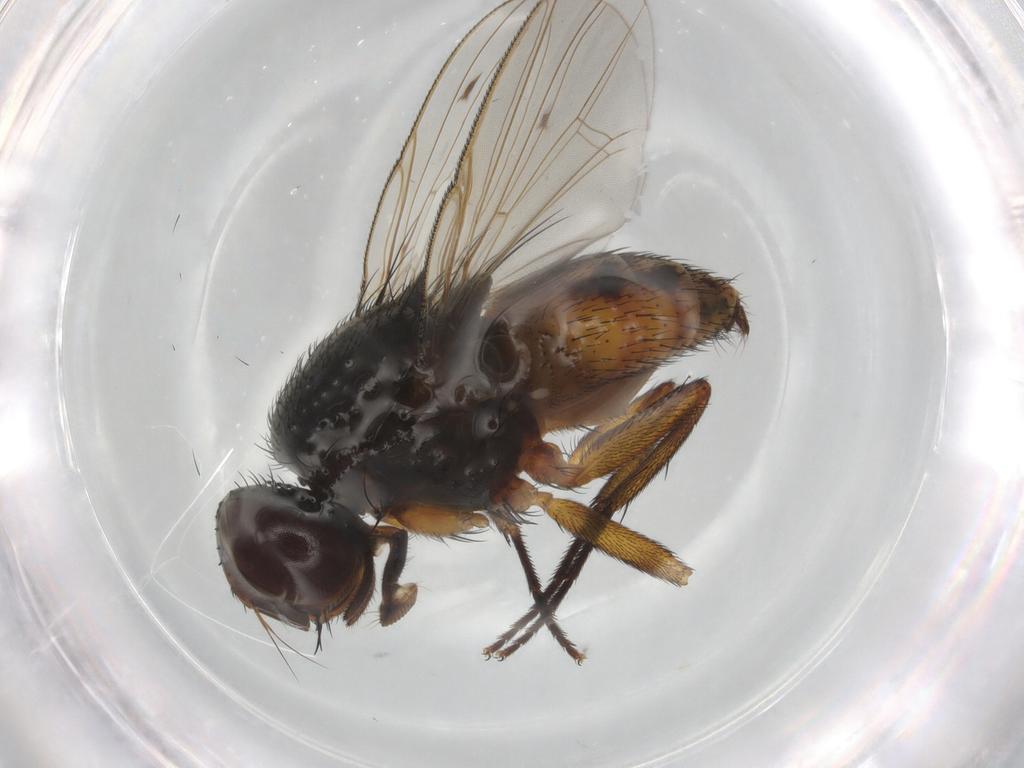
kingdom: Animalia
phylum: Arthropoda
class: Insecta
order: Diptera
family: Muscidae
